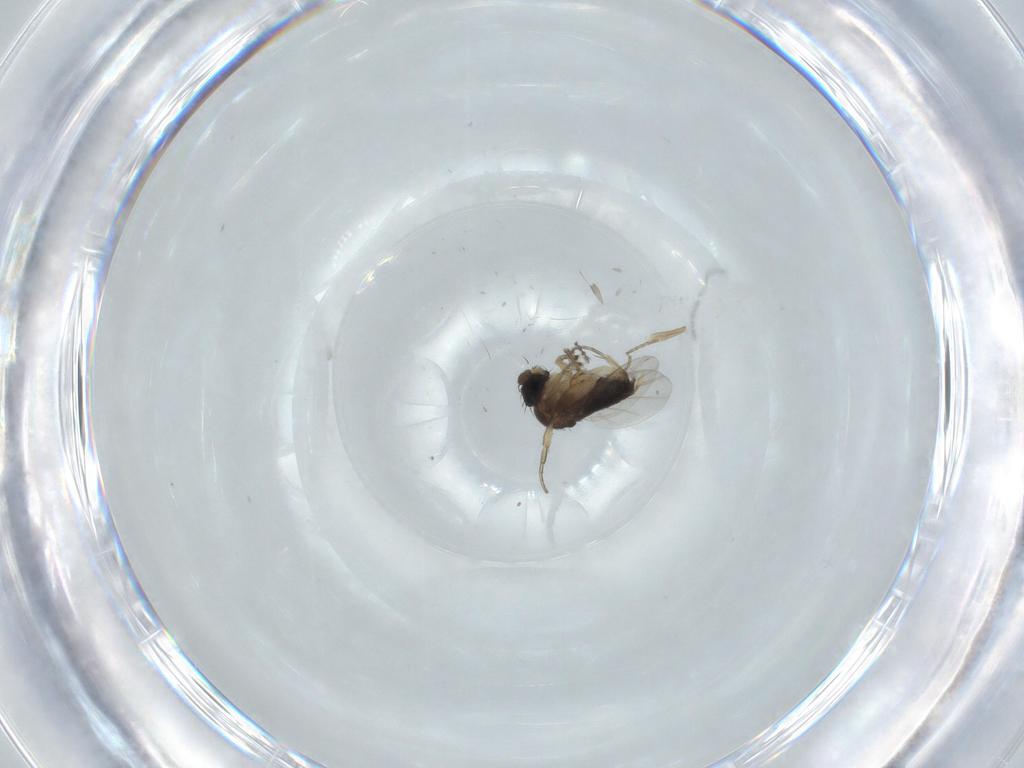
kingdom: Animalia
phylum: Arthropoda
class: Insecta
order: Diptera
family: Phoridae
